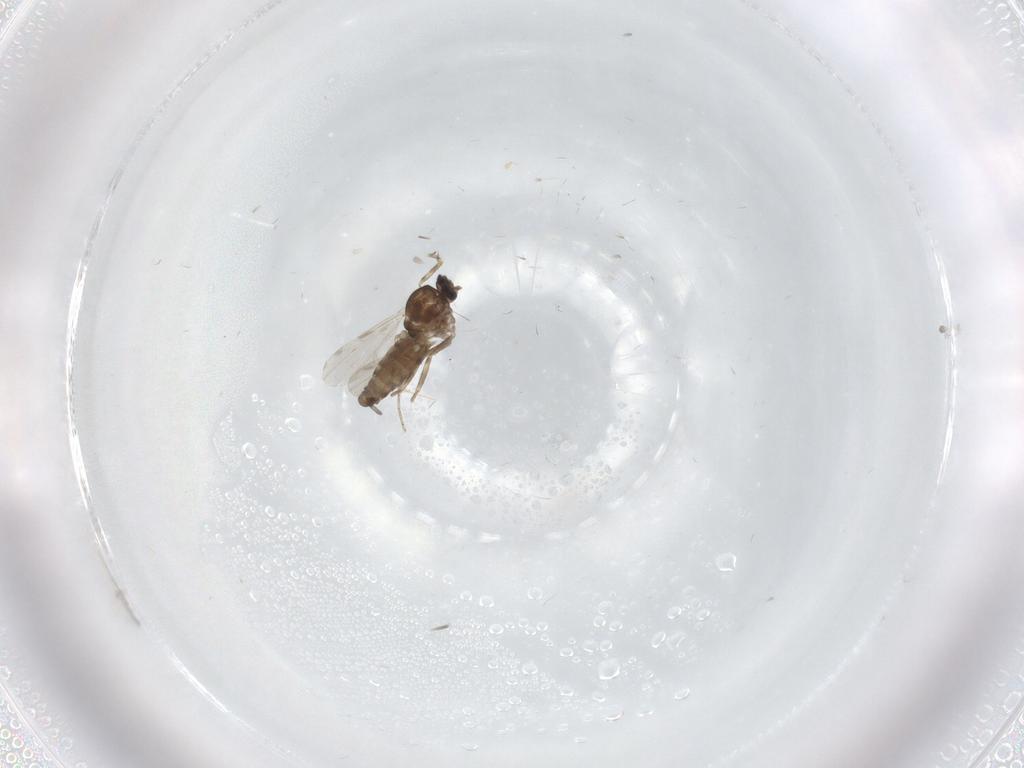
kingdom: Animalia
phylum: Arthropoda
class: Insecta
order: Diptera
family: Ceratopogonidae
